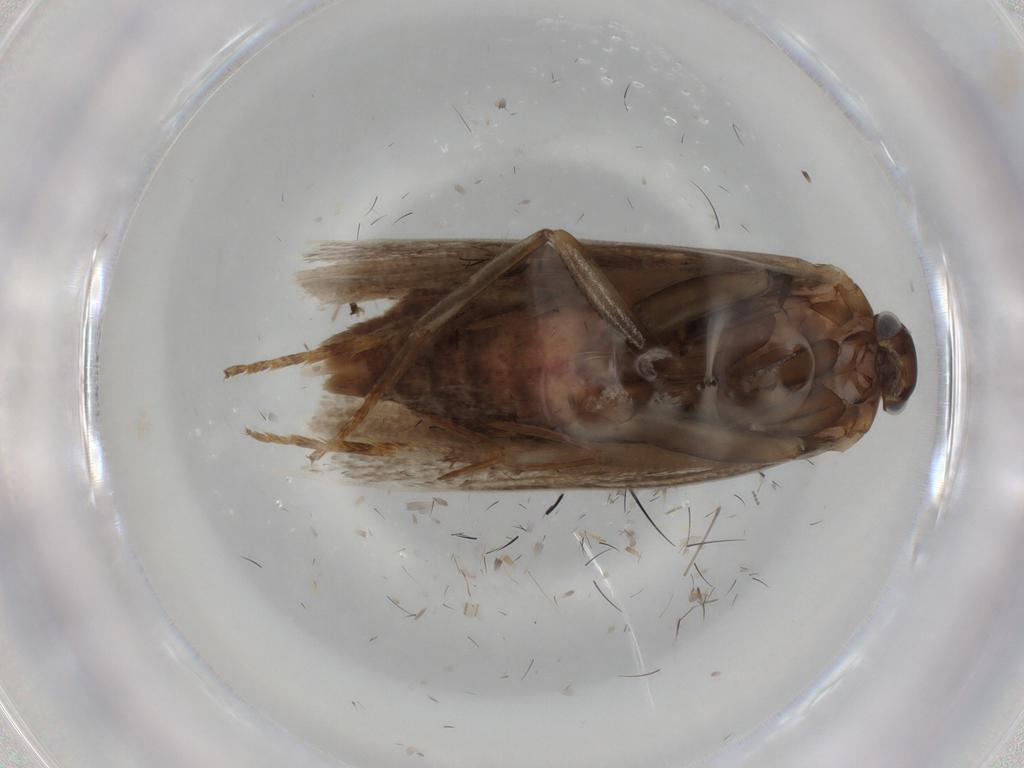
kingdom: Animalia
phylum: Arthropoda
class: Insecta
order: Lepidoptera
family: Gelechiidae
